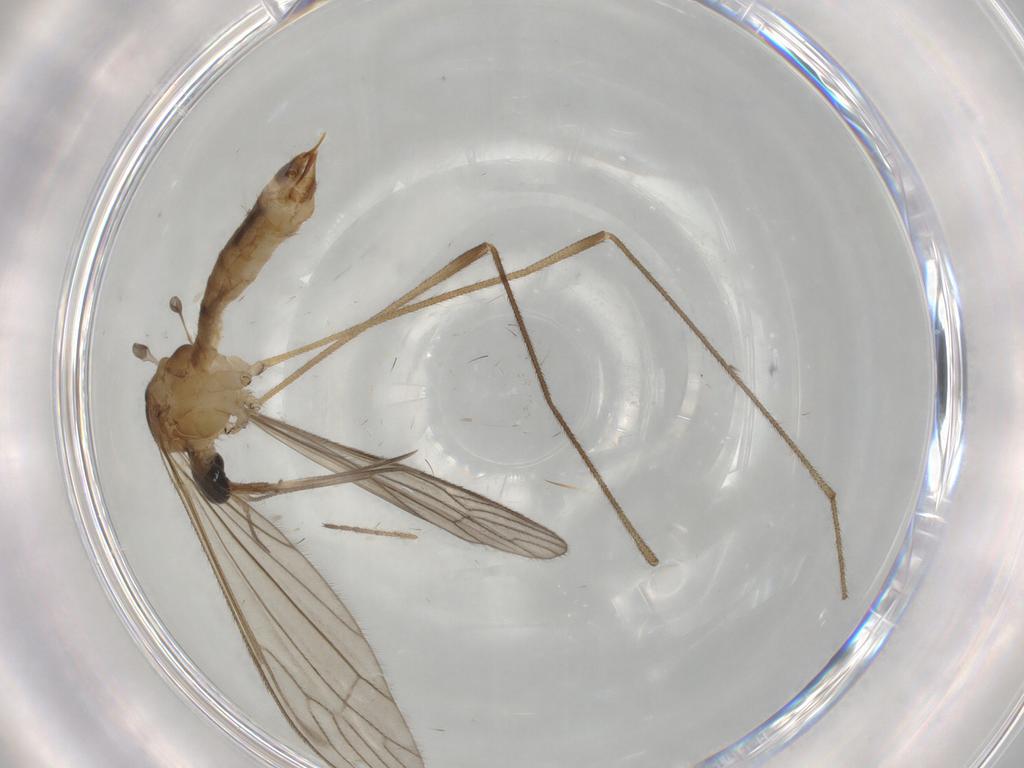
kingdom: Animalia
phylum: Arthropoda
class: Insecta
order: Diptera
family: Limoniidae
